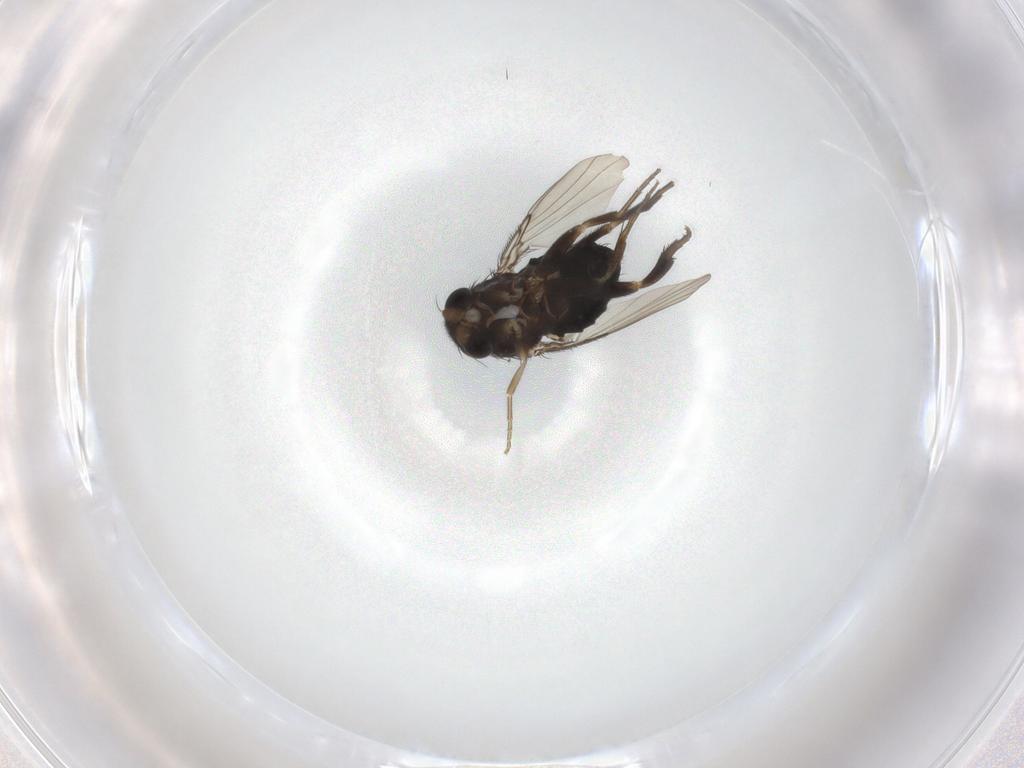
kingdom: Animalia
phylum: Arthropoda
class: Insecta
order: Diptera
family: Phoridae
